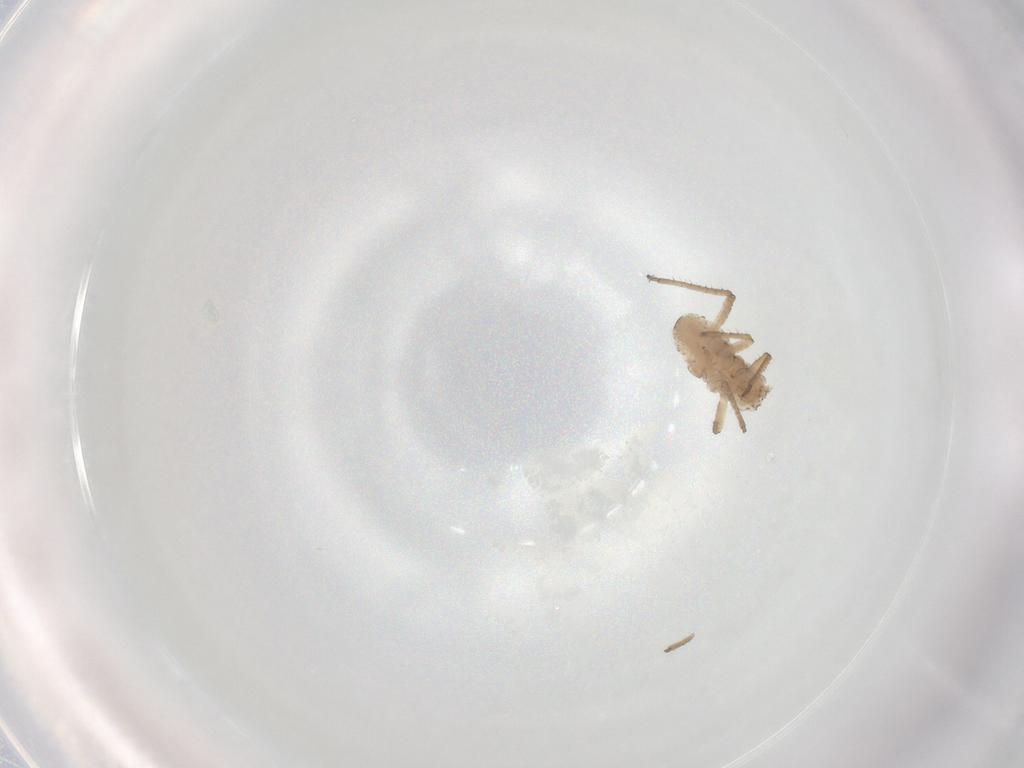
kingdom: Animalia
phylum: Arthropoda
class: Insecta
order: Hemiptera
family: Aphididae
